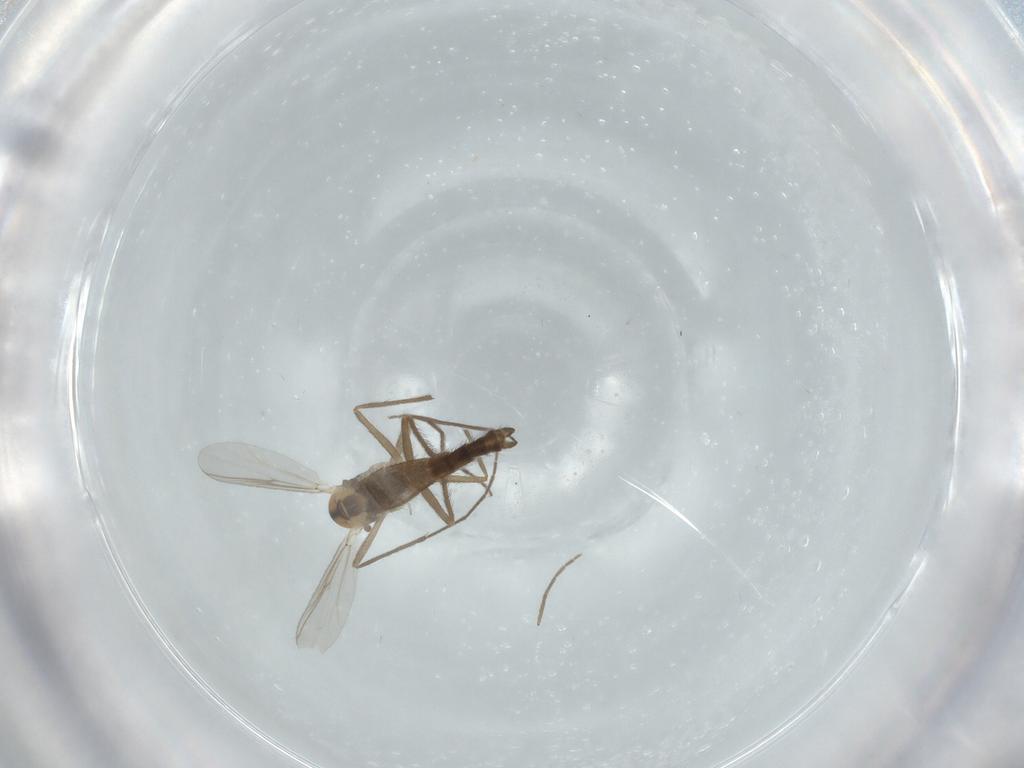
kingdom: Animalia
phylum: Arthropoda
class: Insecta
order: Diptera
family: Chironomidae
